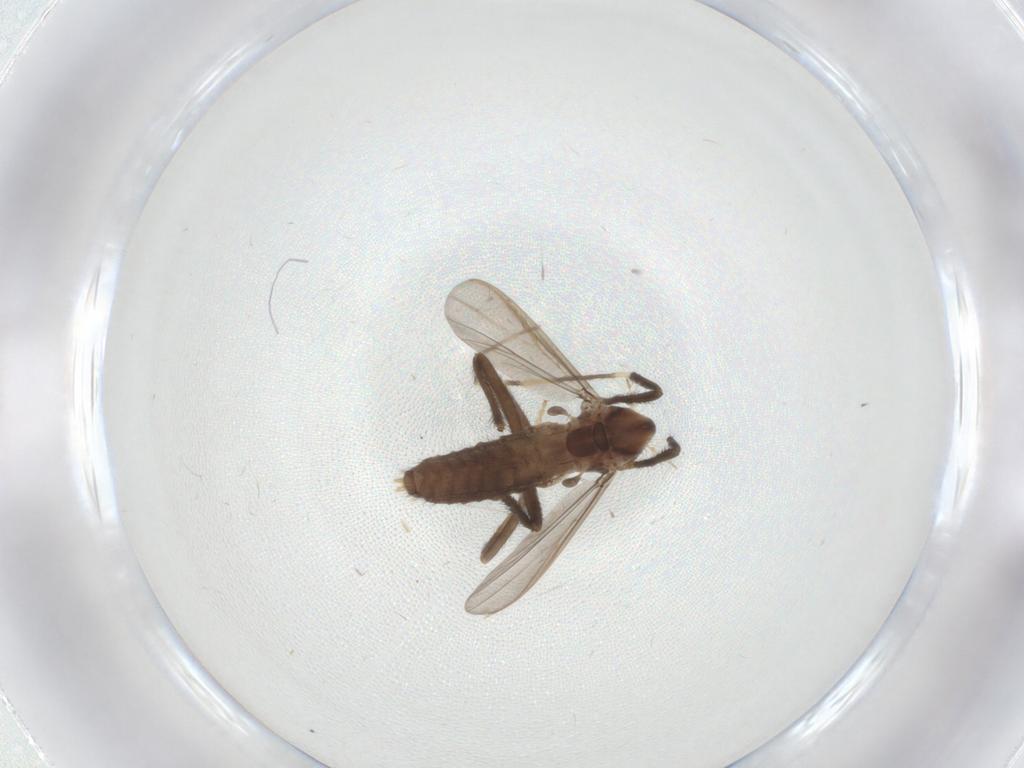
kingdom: Animalia
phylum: Arthropoda
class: Insecta
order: Diptera
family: Chironomidae
